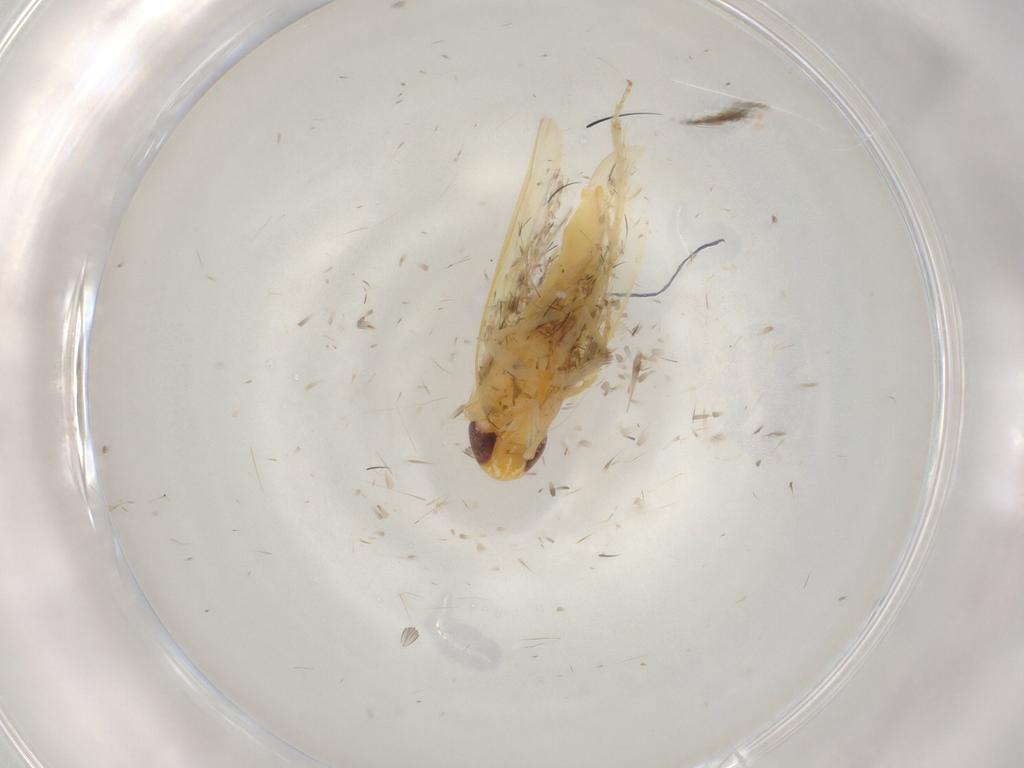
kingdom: Animalia
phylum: Arthropoda
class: Insecta
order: Hemiptera
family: Cicadellidae
